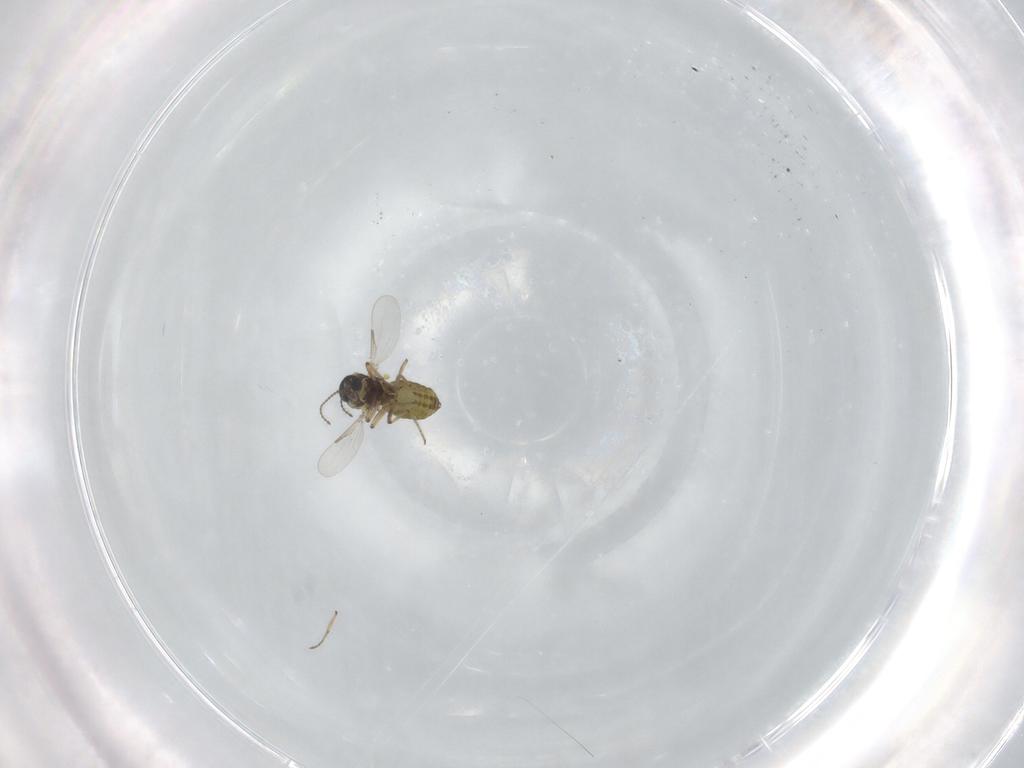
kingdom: Animalia
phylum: Arthropoda
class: Insecta
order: Diptera
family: Ceratopogonidae
